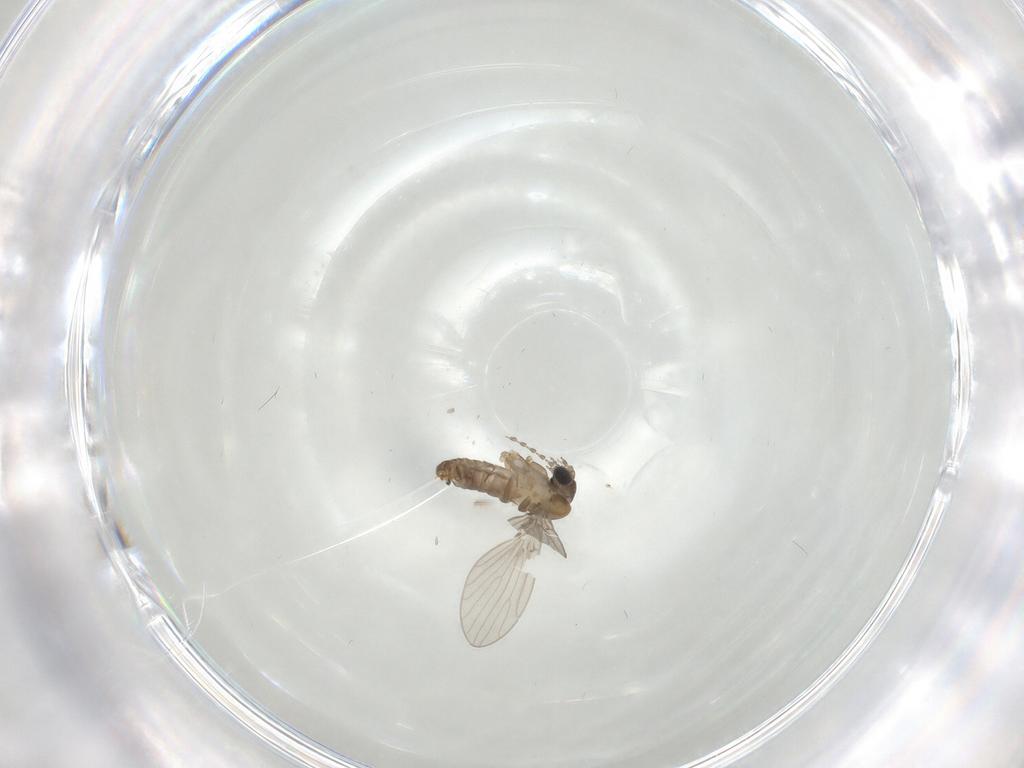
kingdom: Animalia
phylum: Arthropoda
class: Insecta
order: Diptera
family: Psychodidae
